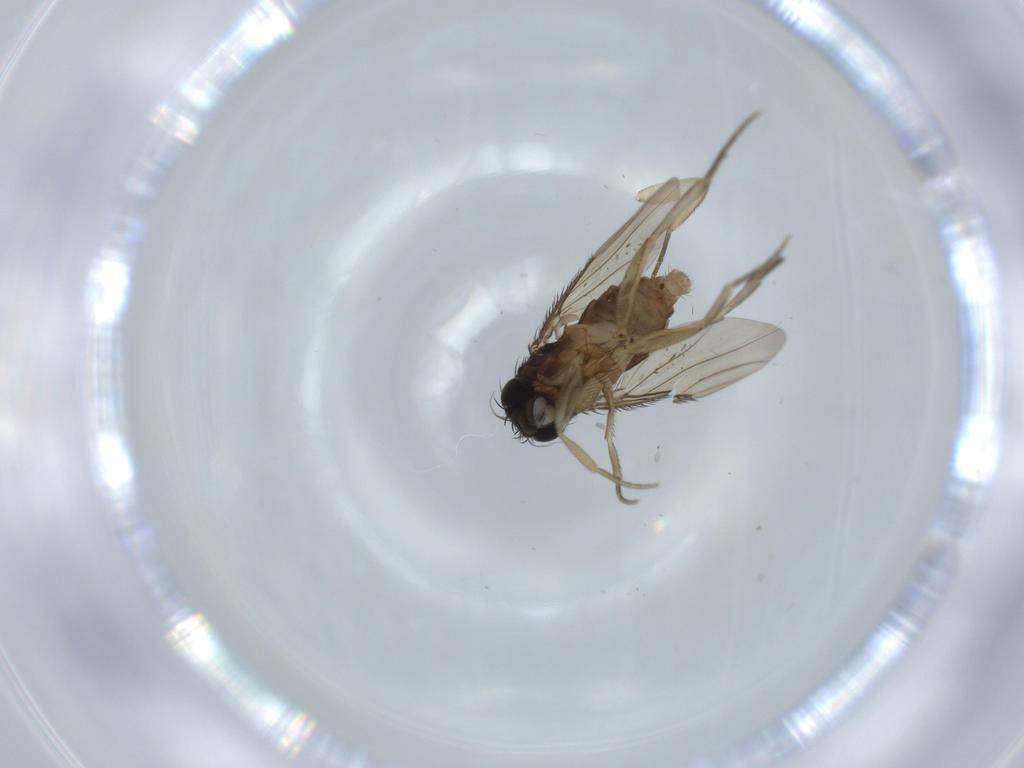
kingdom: Animalia
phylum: Arthropoda
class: Insecta
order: Diptera
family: Phoridae
